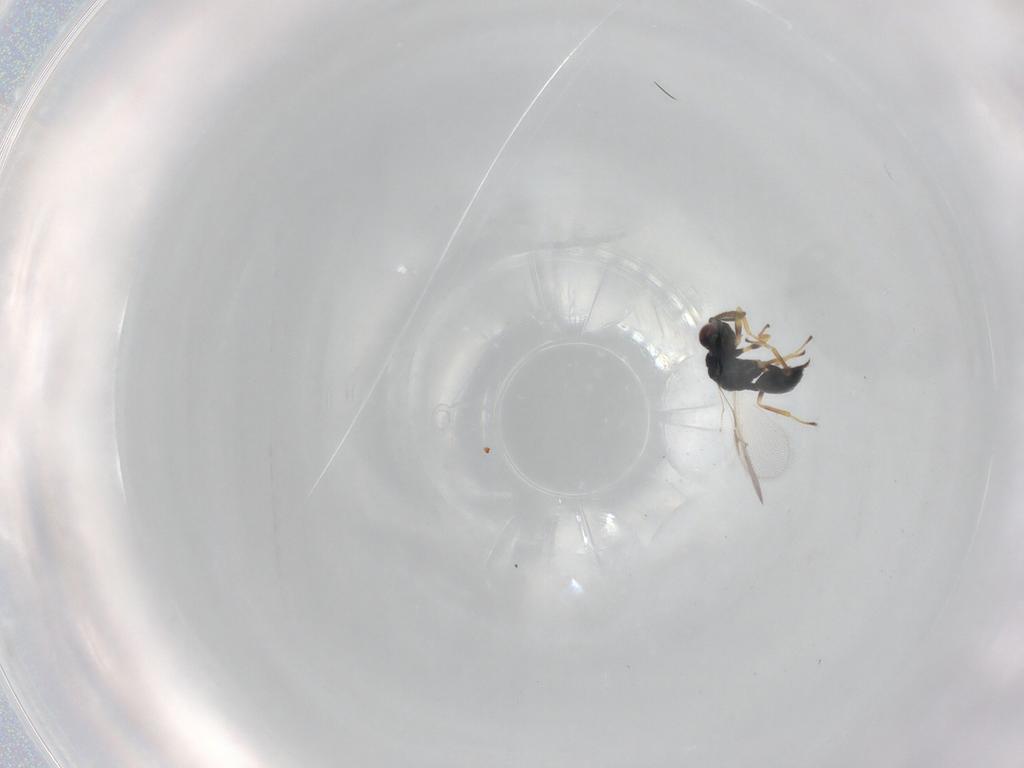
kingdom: Animalia
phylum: Arthropoda
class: Insecta
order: Hymenoptera
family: Chalcidoidea_incertae_sedis
